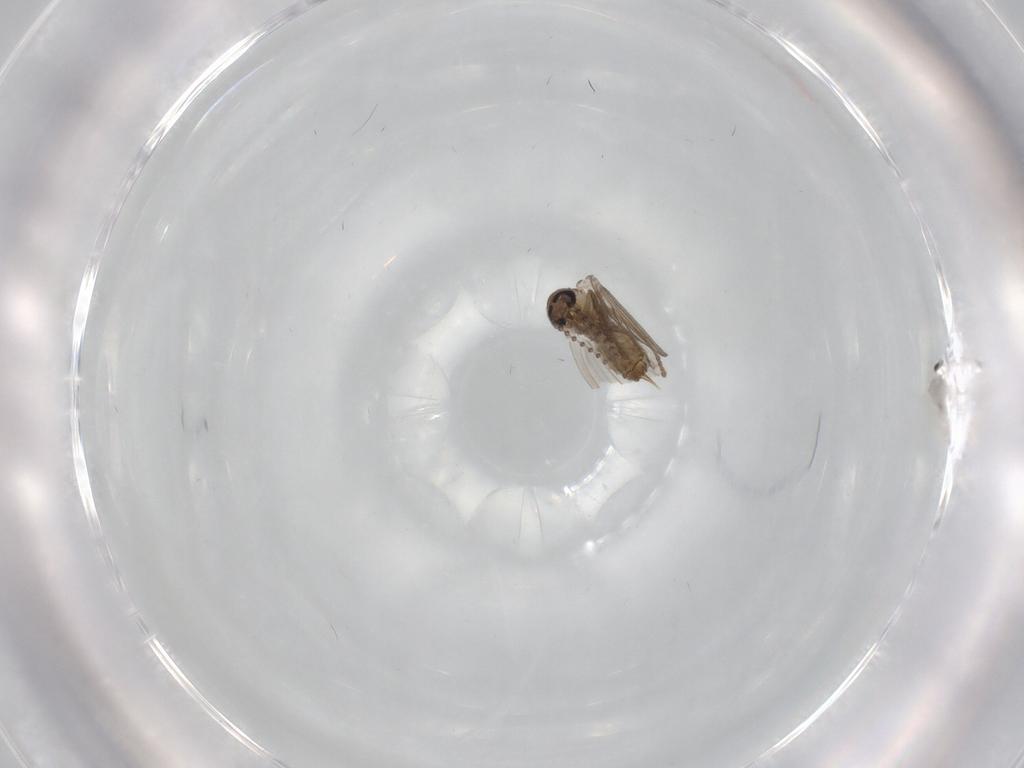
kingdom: Animalia
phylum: Arthropoda
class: Insecta
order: Diptera
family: Psychodidae
